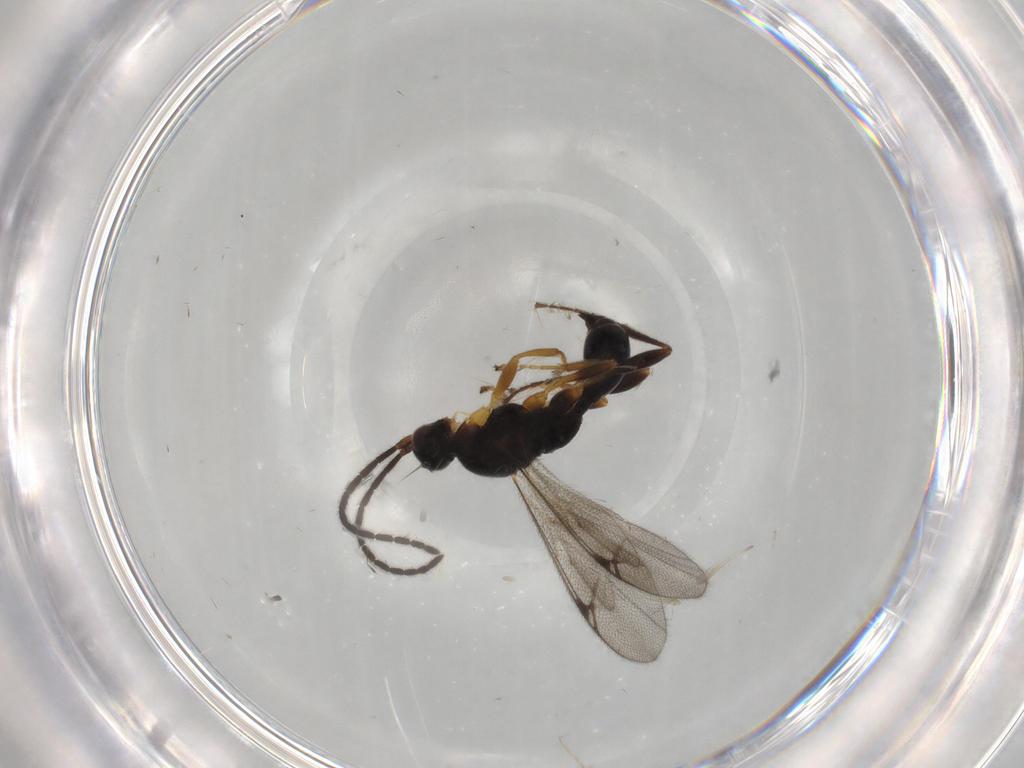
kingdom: Animalia
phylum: Arthropoda
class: Insecta
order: Hymenoptera
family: Proctotrupidae
